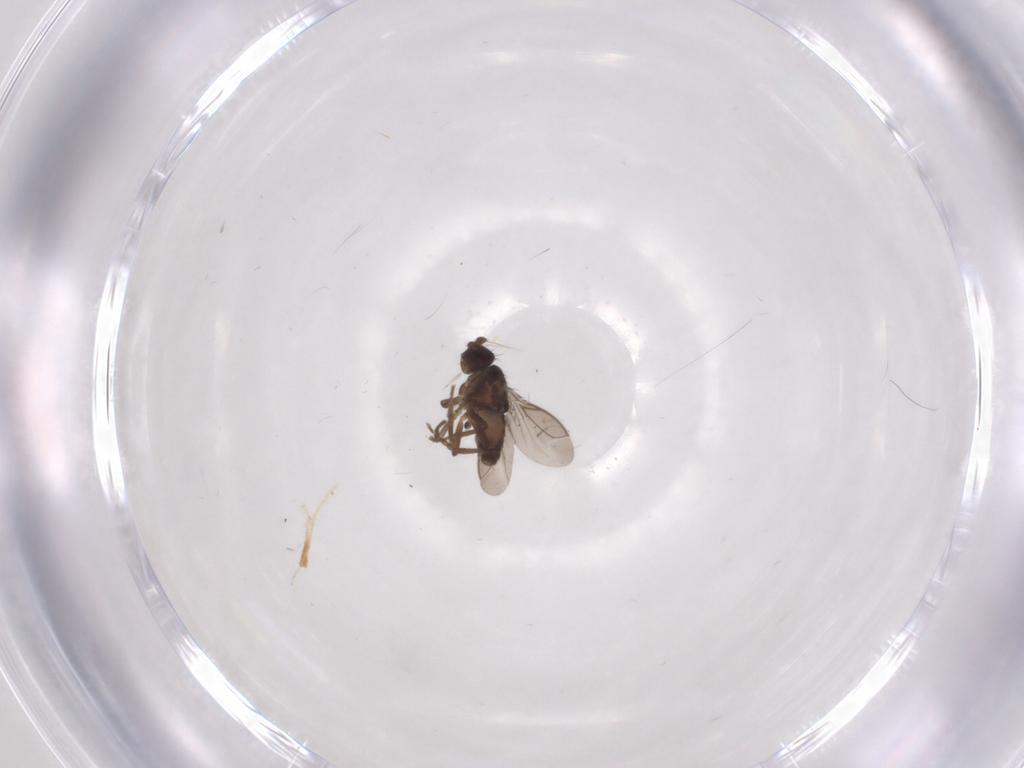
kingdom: Animalia
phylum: Arthropoda
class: Insecta
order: Diptera
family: Sphaeroceridae
